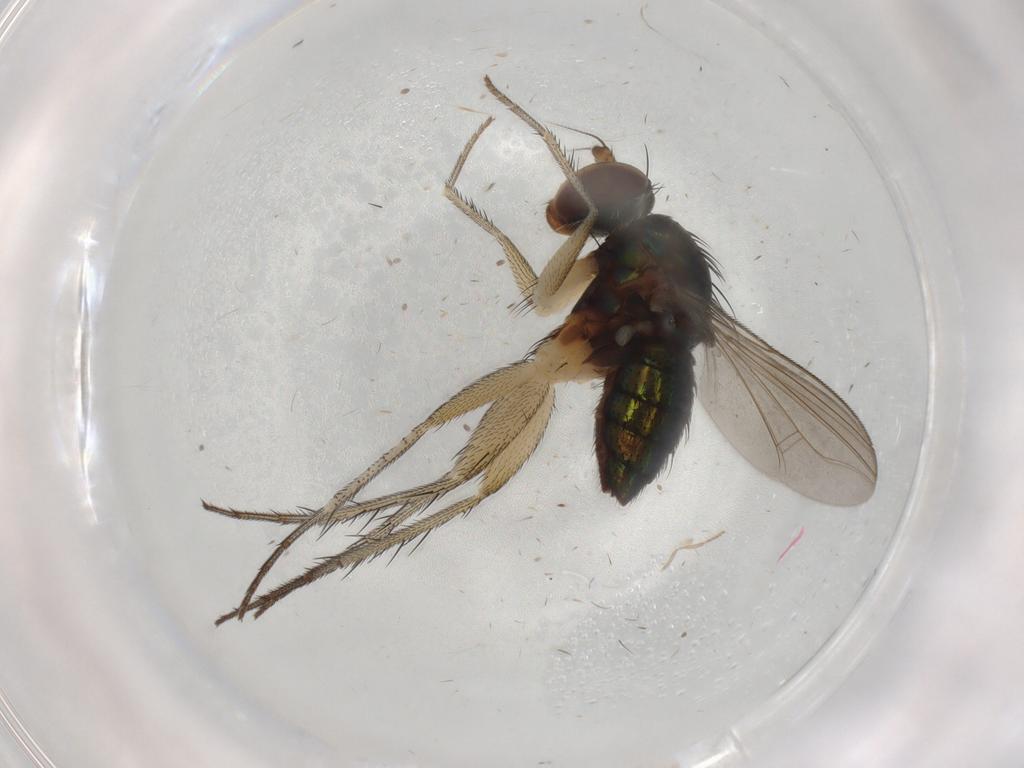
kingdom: Animalia
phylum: Arthropoda
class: Insecta
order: Diptera
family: Dolichopodidae
